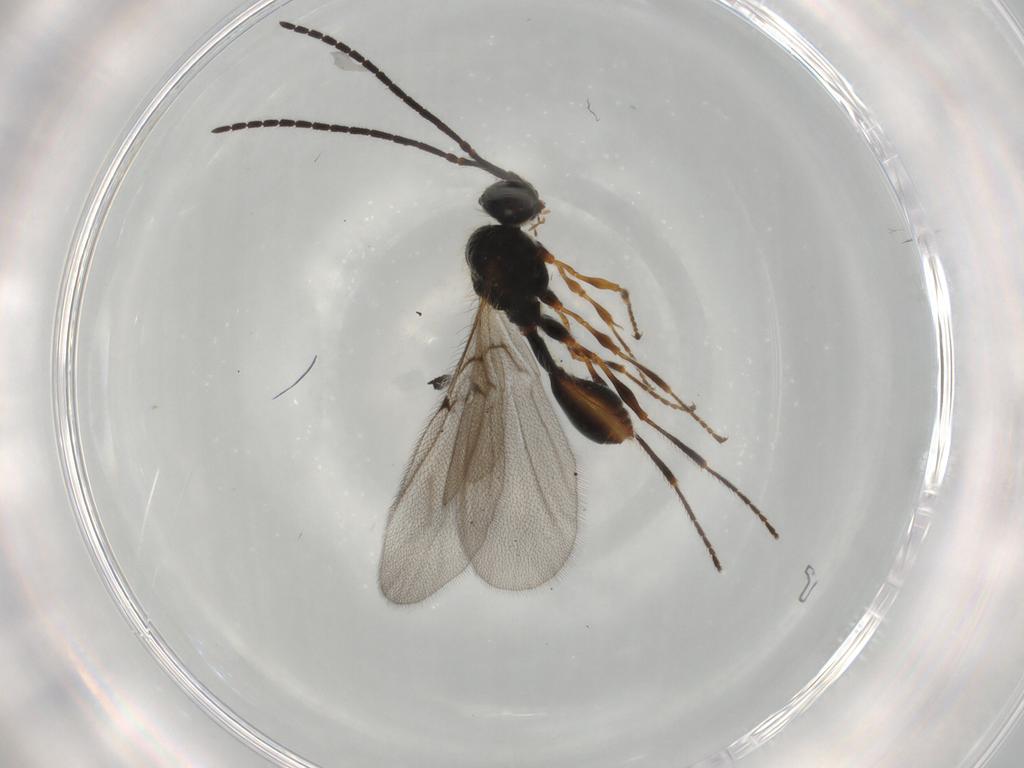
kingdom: Animalia
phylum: Arthropoda
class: Insecta
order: Hymenoptera
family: Diapriidae
